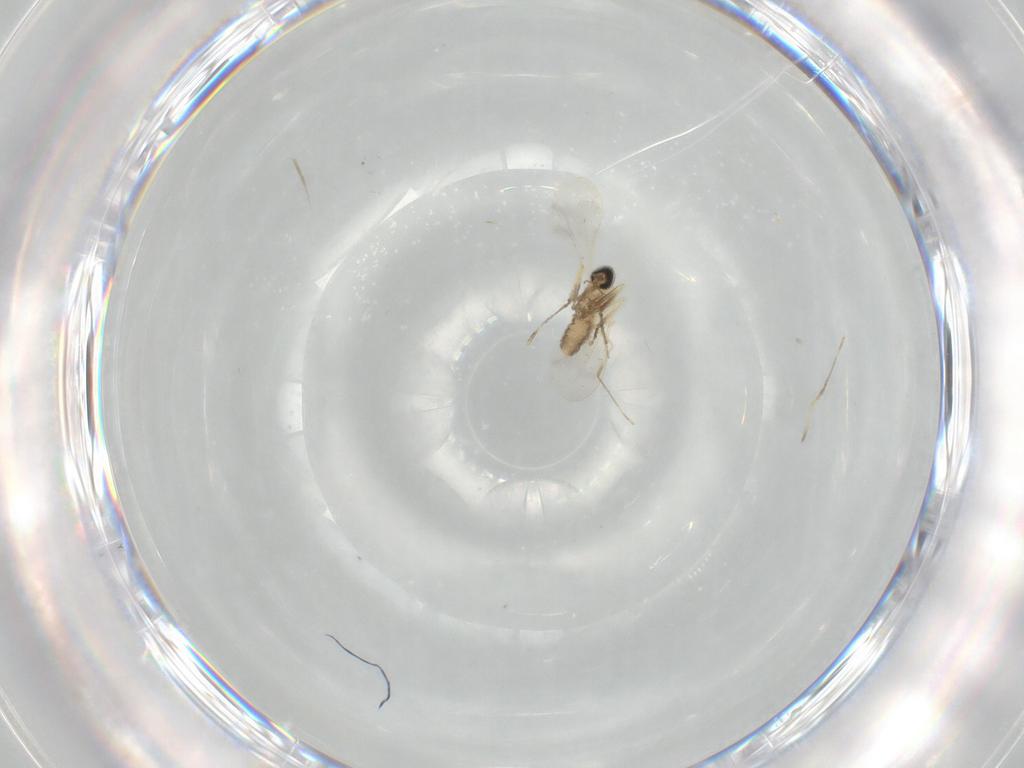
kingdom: Animalia
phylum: Arthropoda
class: Insecta
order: Diptera
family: Cecidomyiidae
